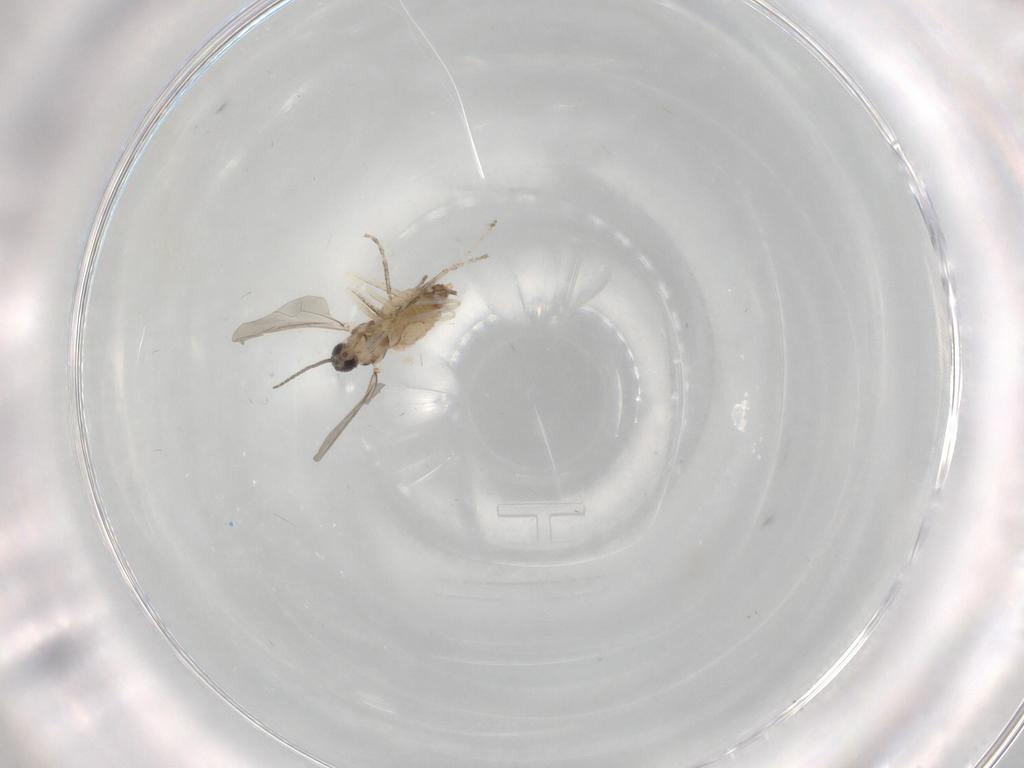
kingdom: Animalia
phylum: Arthropoda
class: Insecta
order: Diptera
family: Cecidomyiidae
